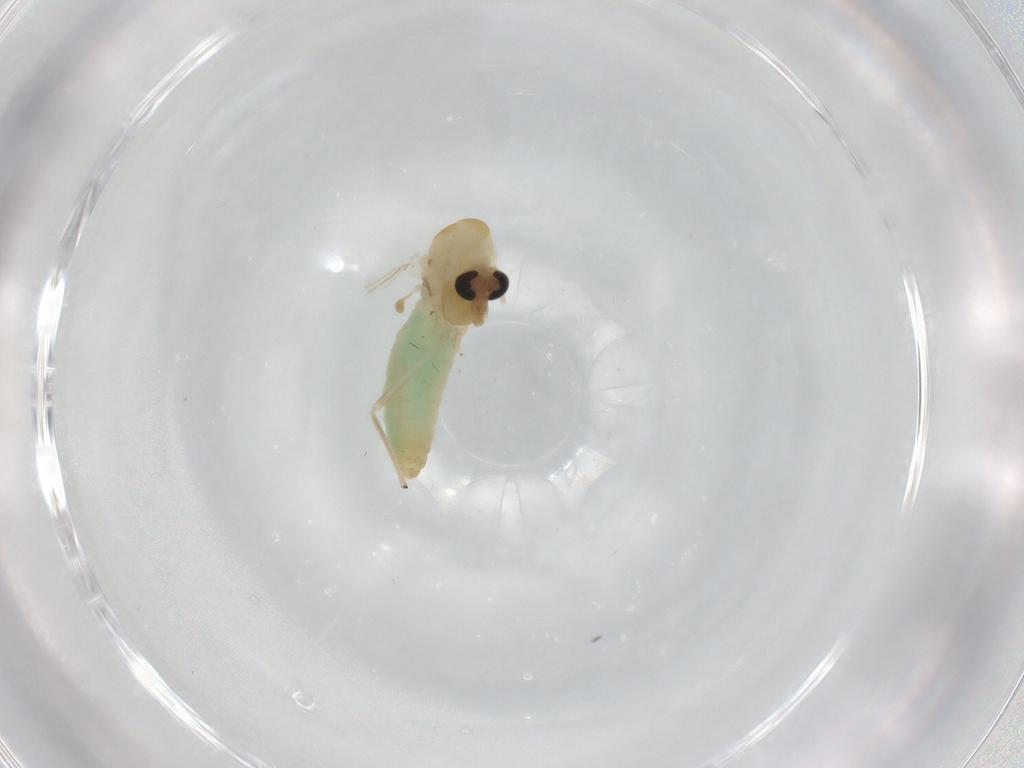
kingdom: Animalia
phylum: Arthropoda
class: Insecta
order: Diptera
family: Chironomidae
